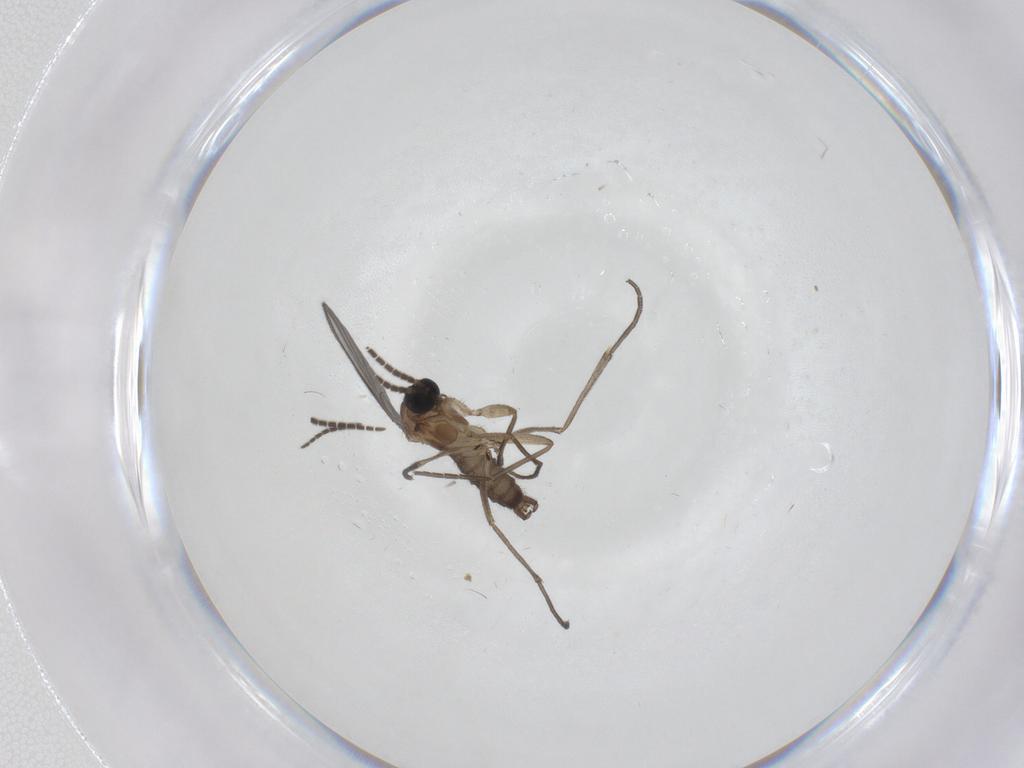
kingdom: Animalia
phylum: Arthropoda
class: Insecta
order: Diptera
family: Sciaridae
